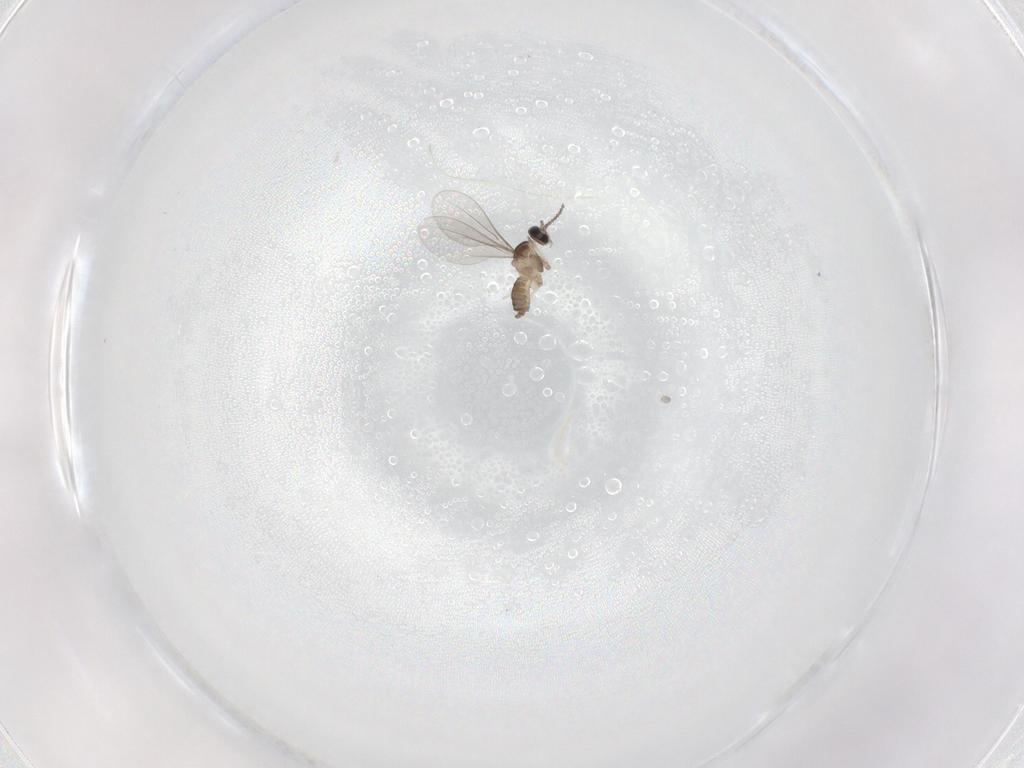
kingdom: Animalia
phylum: Arthropoda
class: Insecta
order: Diptera
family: Cecidomyiidae
